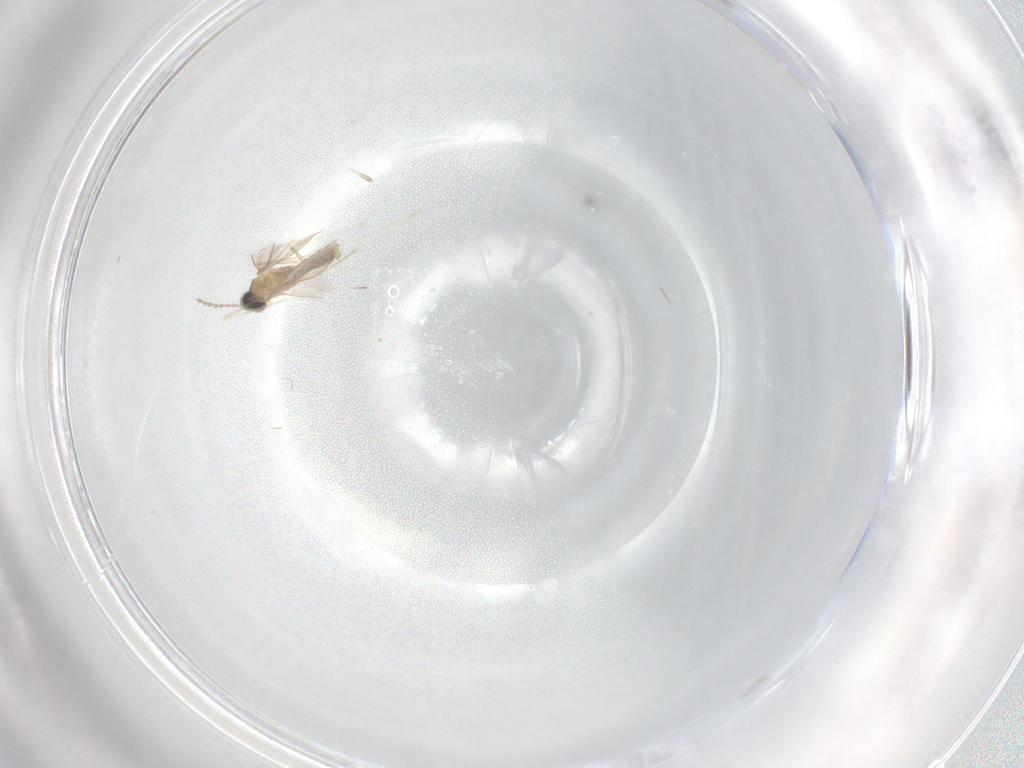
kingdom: Animalia
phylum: Arthropoda
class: Insecta
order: Diptera
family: Cecidomyiidae
